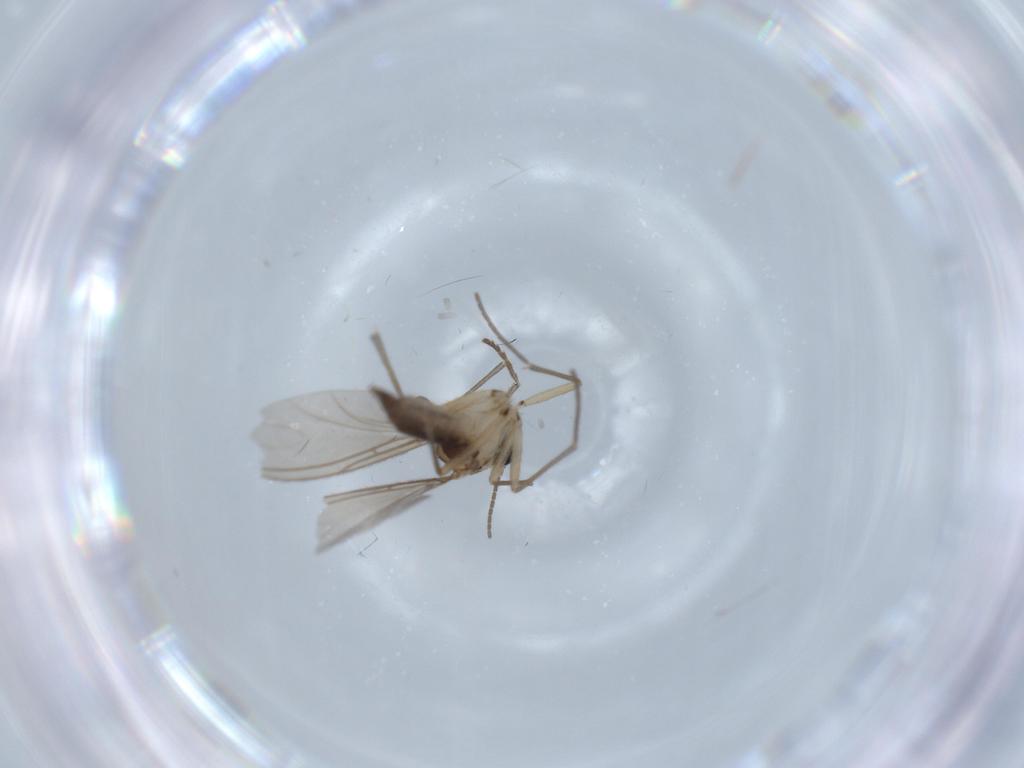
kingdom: Animalia
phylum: Arthropoda
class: Insecta
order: Diptera
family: Sciaridae
